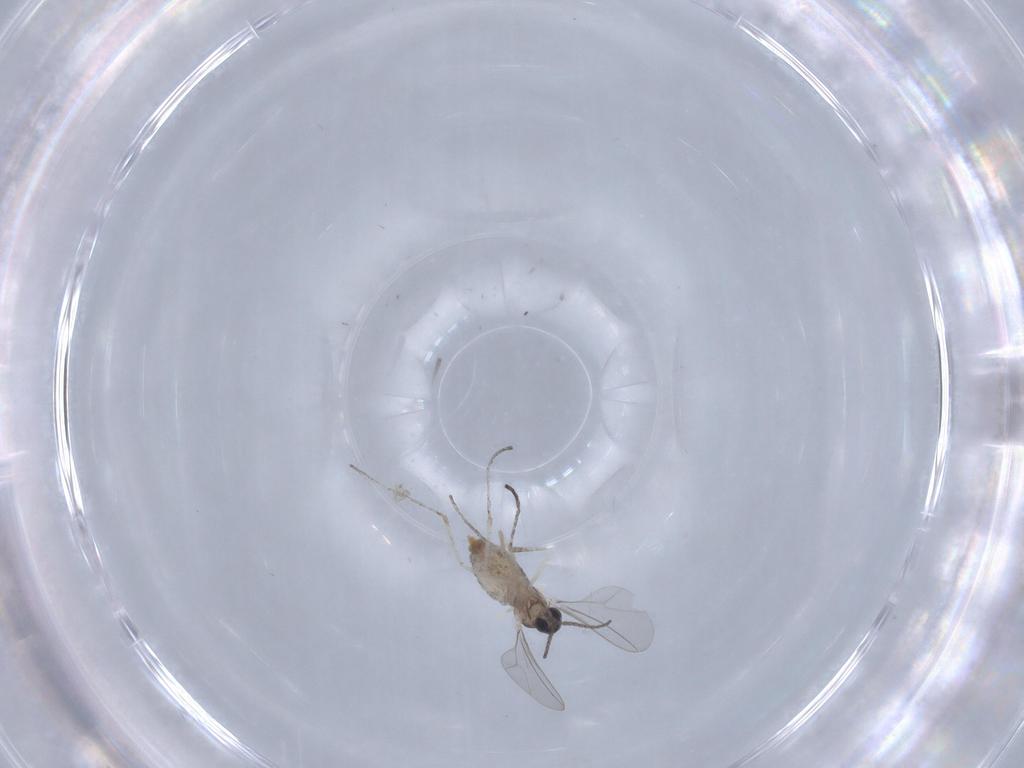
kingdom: Animalia
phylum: Arthropoda
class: Insecta
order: Diptera
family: Cecidomyiidae
